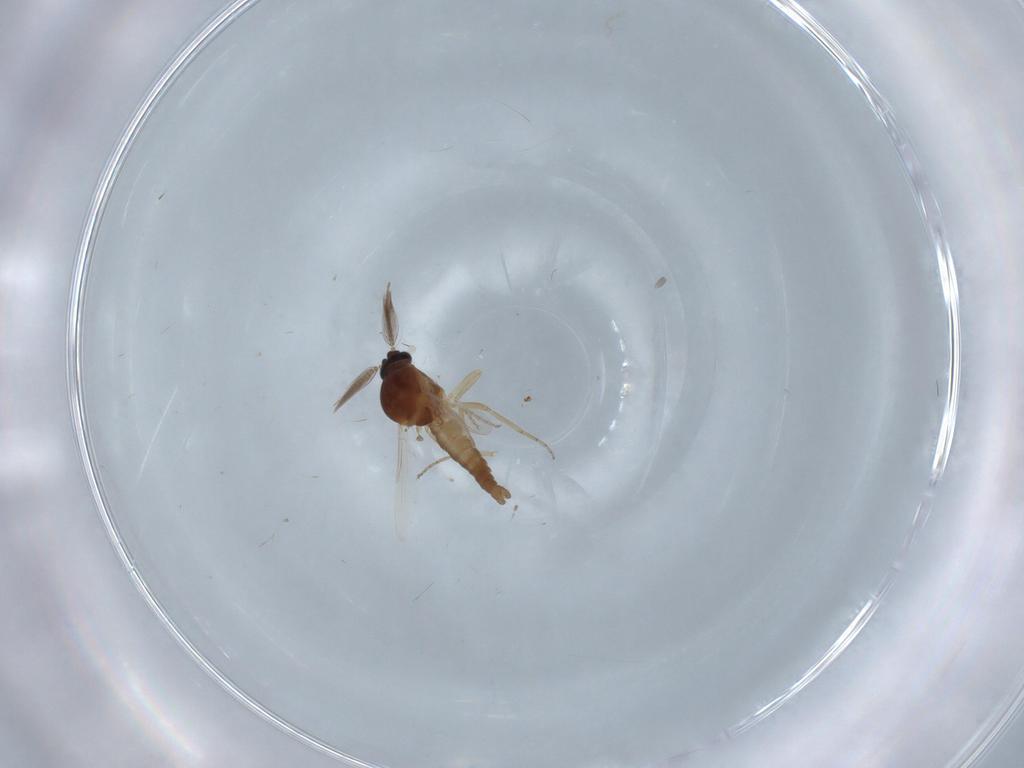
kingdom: Animalia
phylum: Arthropoda
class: Insecta
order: Diptera
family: Ceratopogonidae
